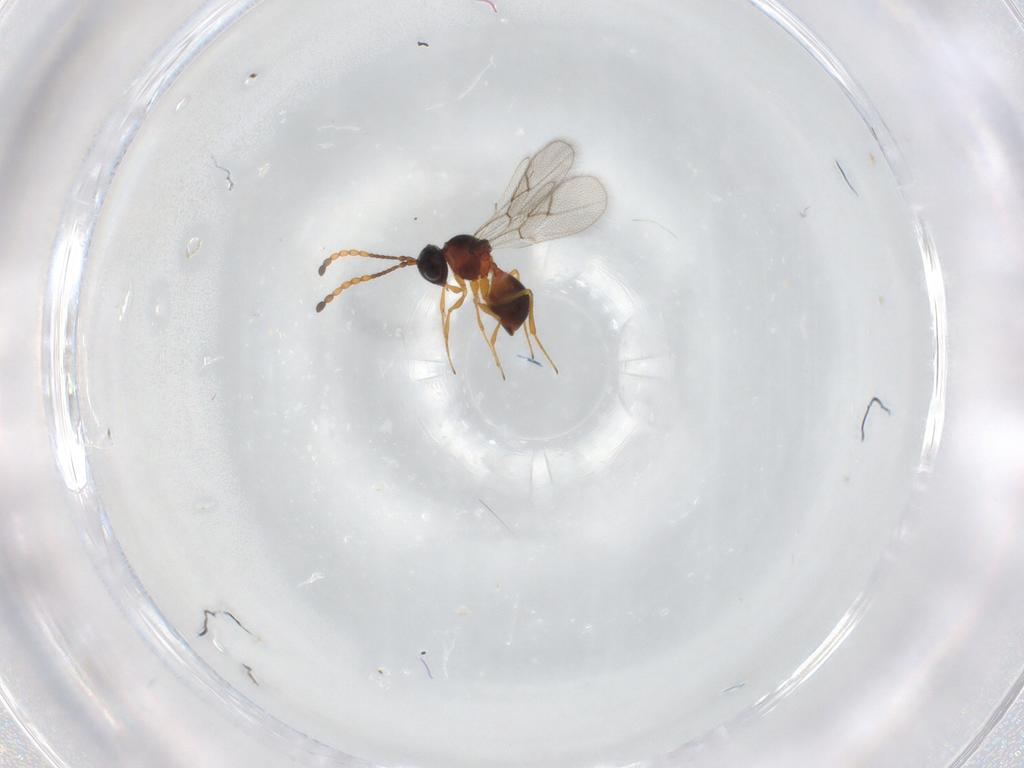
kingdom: Animalia
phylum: Arthropoda
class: Insecta
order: Hymenoptera
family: Figitidae
